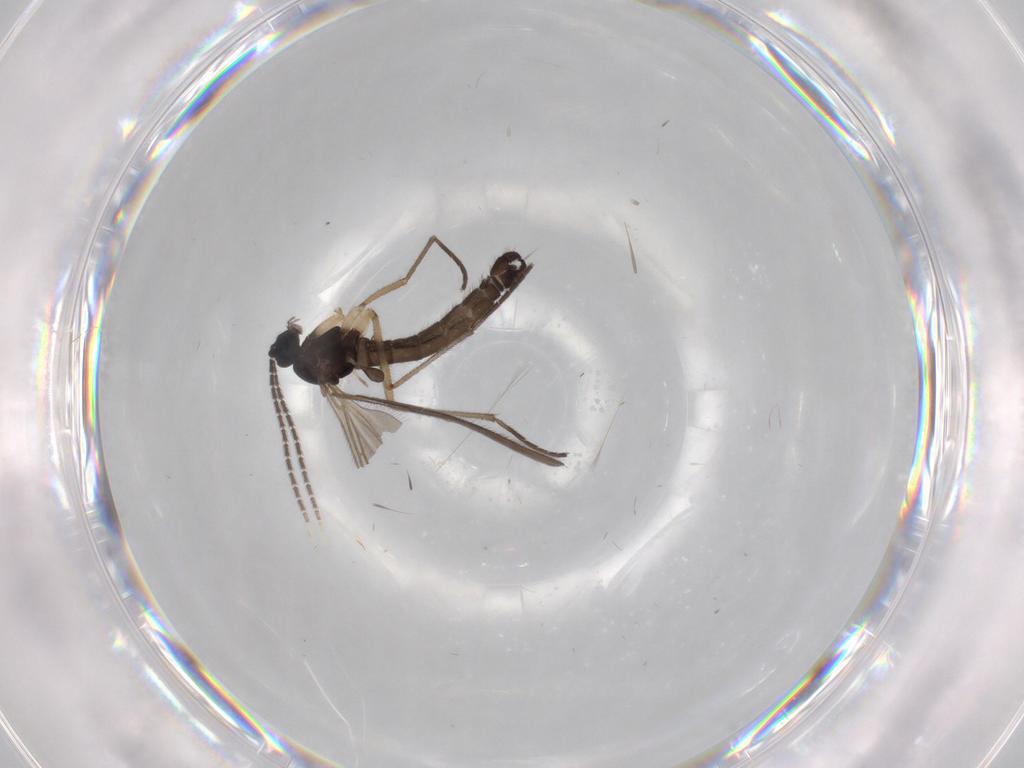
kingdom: Animalia
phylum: Arthropoda
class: Insecta
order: Diptera
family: Sciaridae
